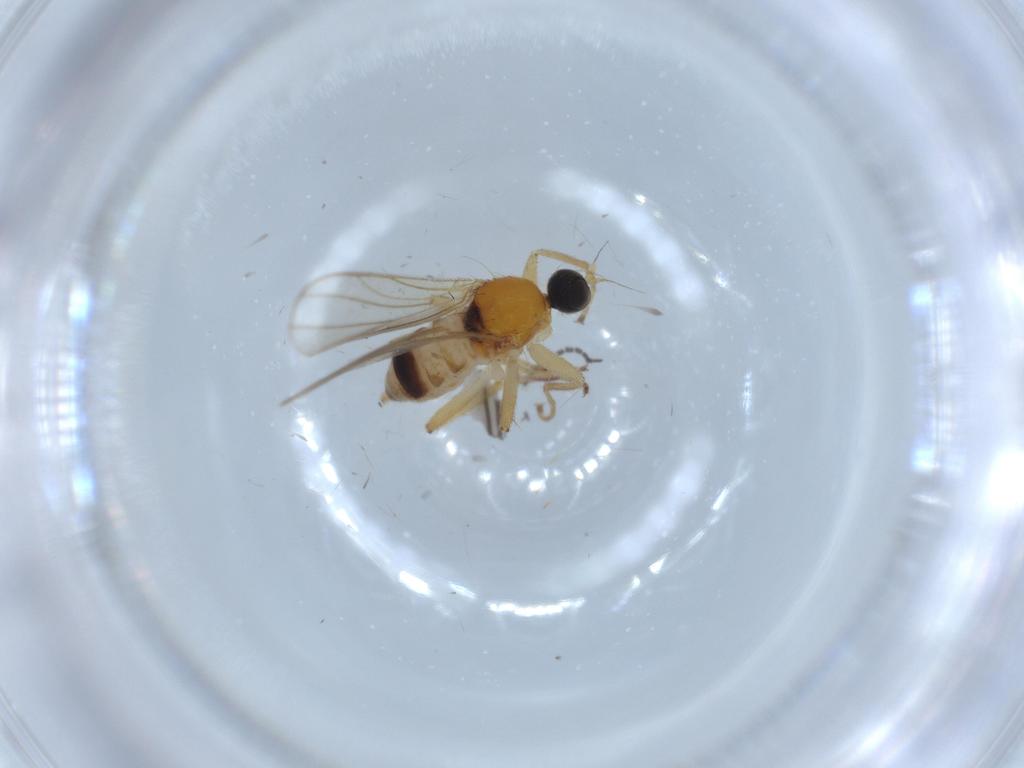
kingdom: Animalia
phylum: Arthropoda
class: Insecta
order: Diptera
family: Hybotidae
